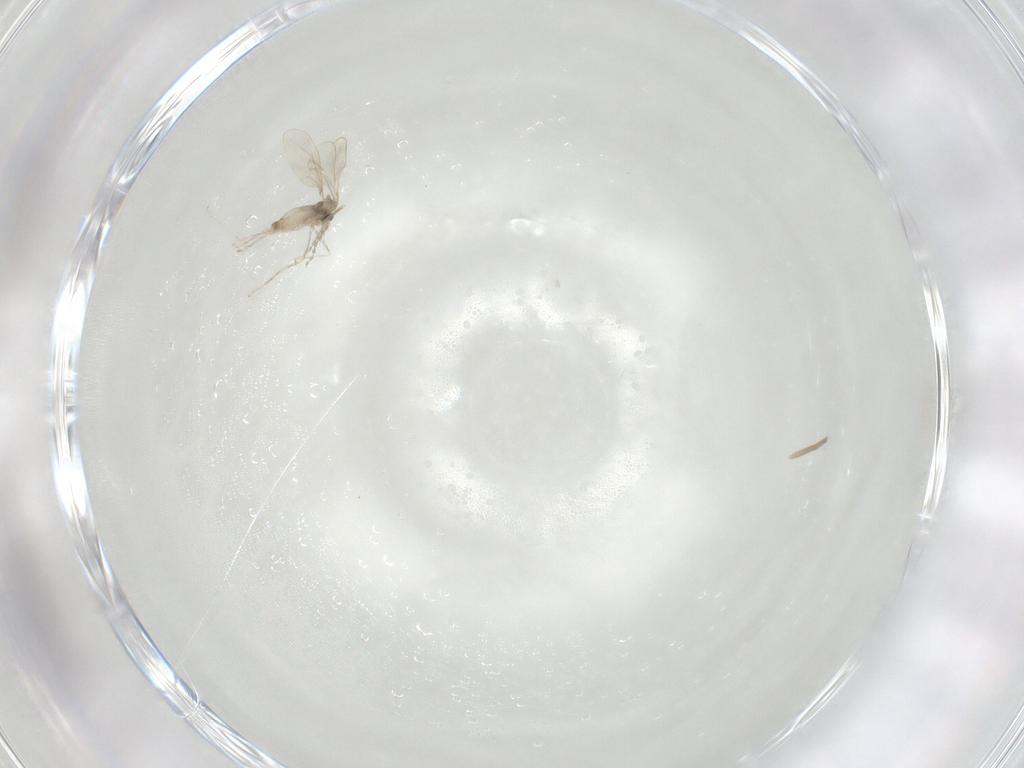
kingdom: Animalia
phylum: Arthropoda
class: Insecta
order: Diptera
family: Cecidomyiidae
